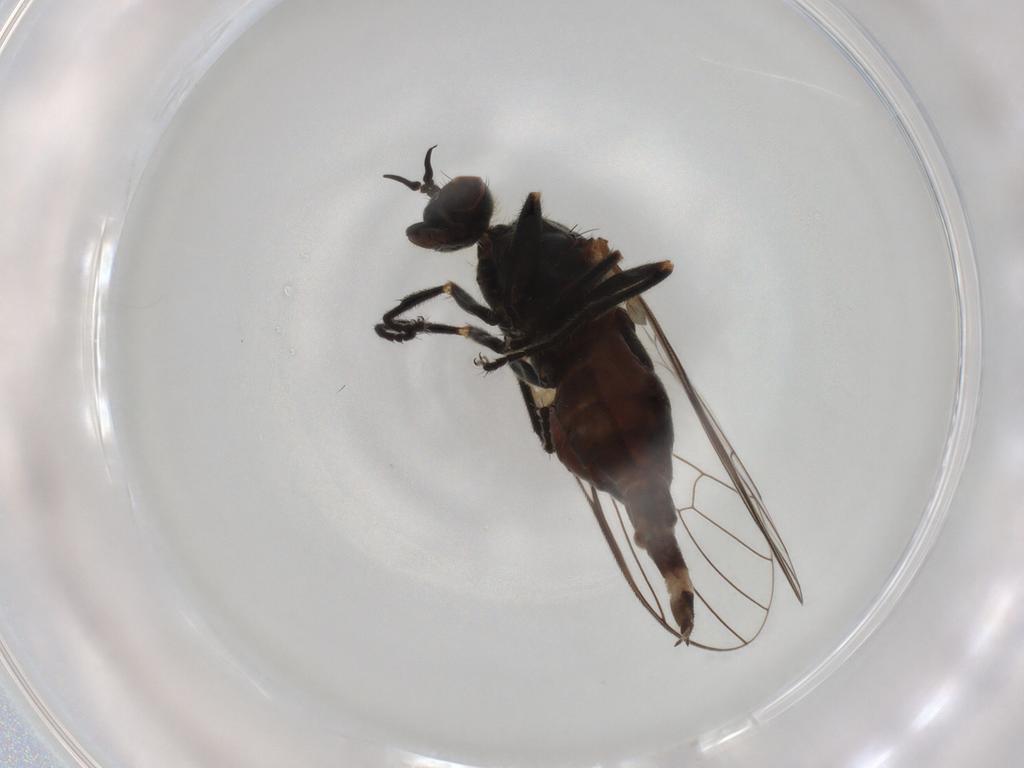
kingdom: Animalia
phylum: Arthropoda
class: Insecta
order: Diptera
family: Empididae
